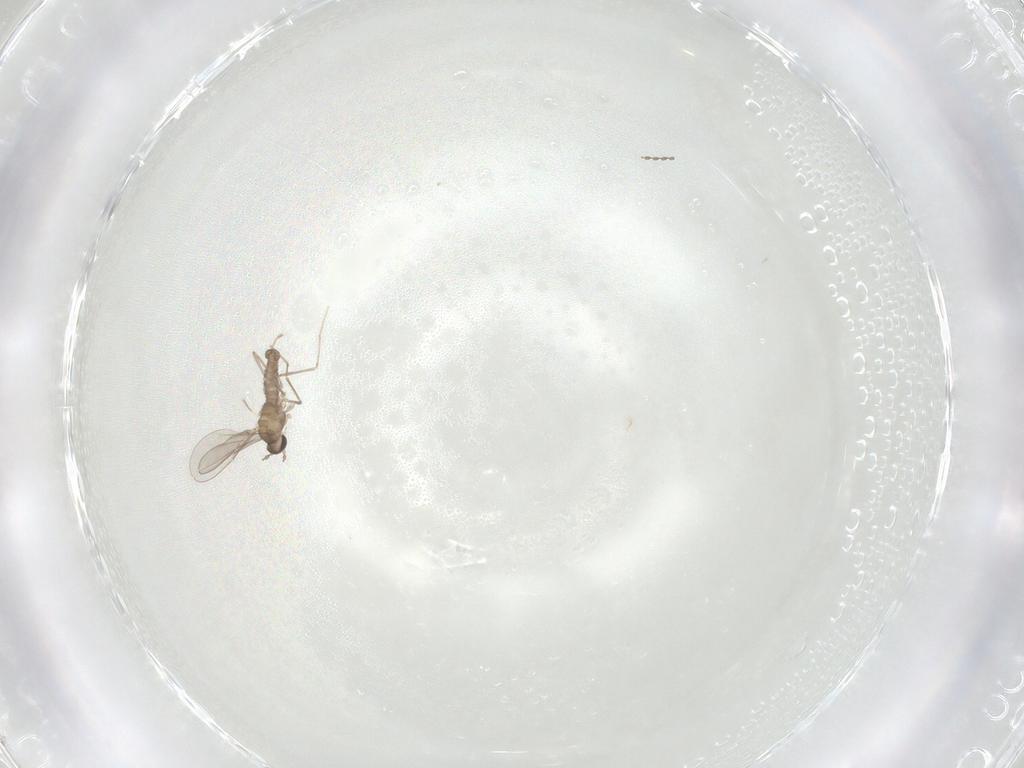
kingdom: Animalia
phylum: Arthropoda
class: Insecta
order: Diptera
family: Cecidomyiidae
